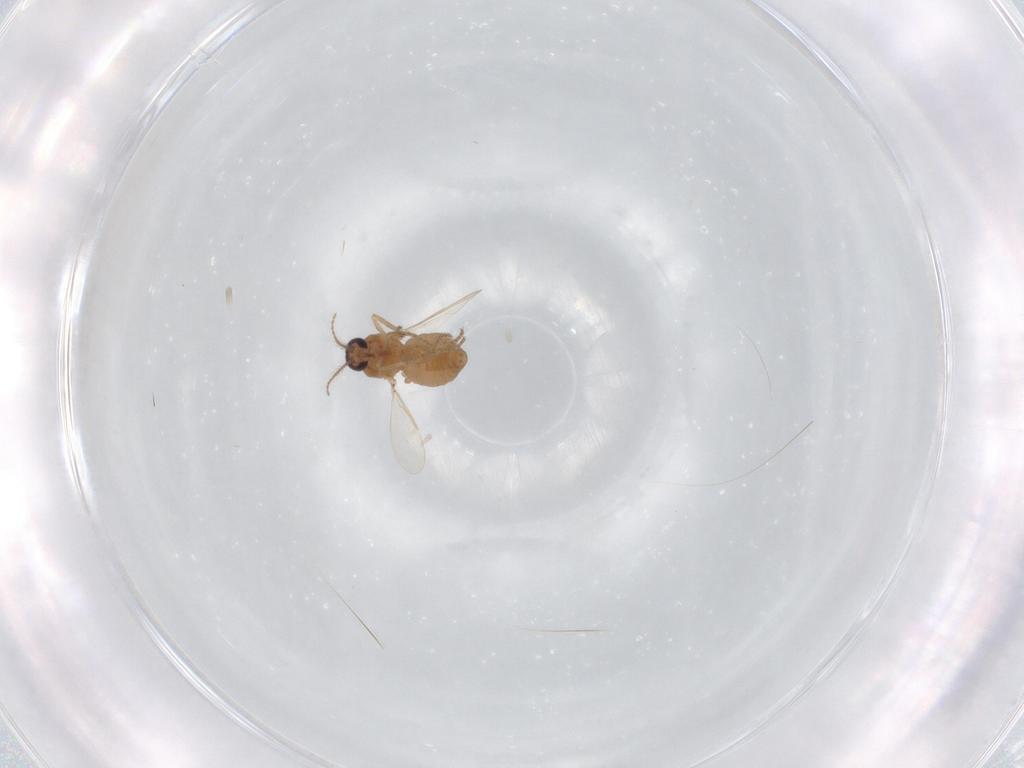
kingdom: Animalia
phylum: Arthropoda
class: Insecta
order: Diptera
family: Ceratopogonidae
